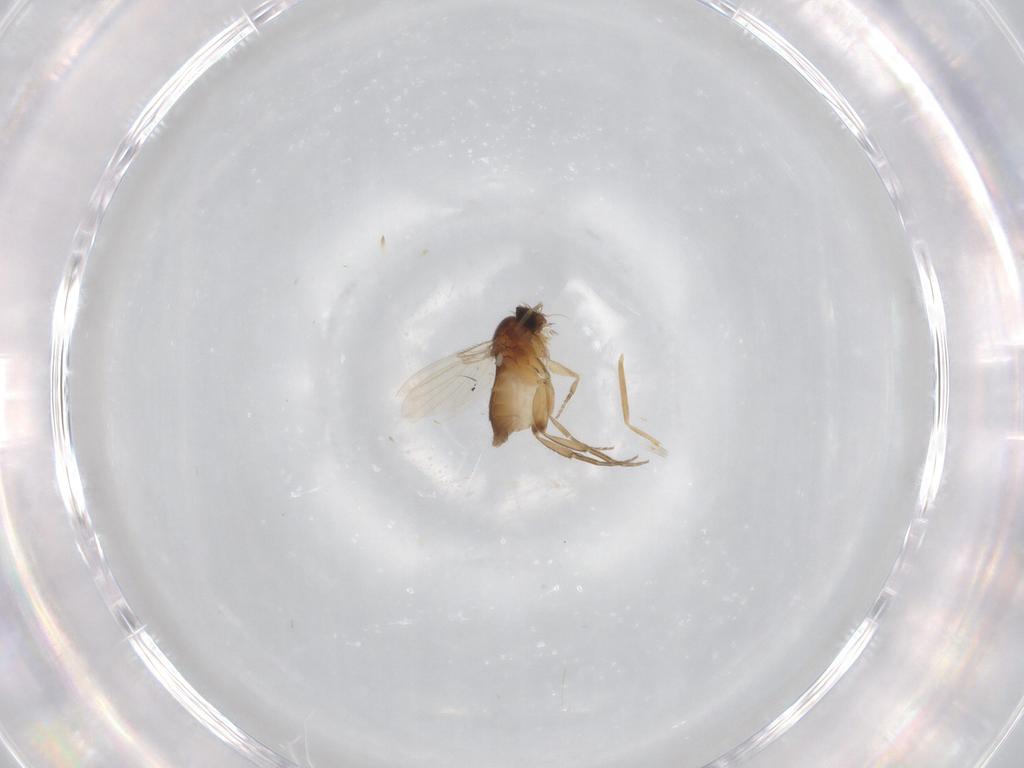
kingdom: Animalia
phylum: Arthropoda
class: Insecta
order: Diptera
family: Phoridae
